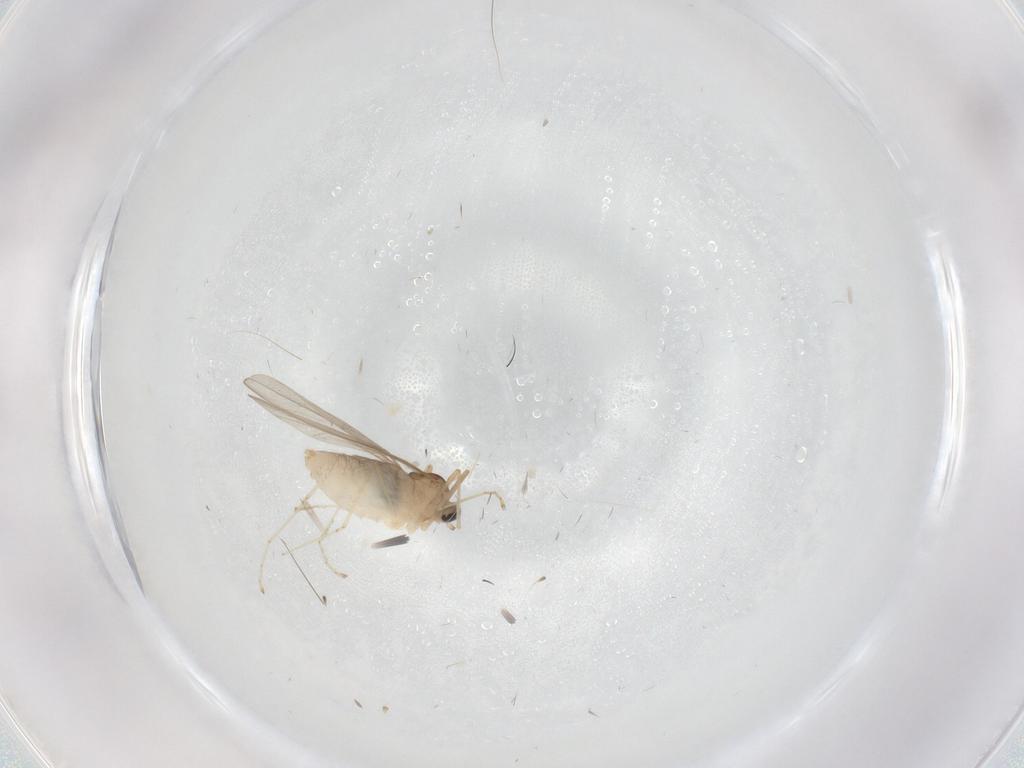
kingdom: Animalia
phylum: Arthropoda
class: Insecta
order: Diptera
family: Cecidomyiidae
